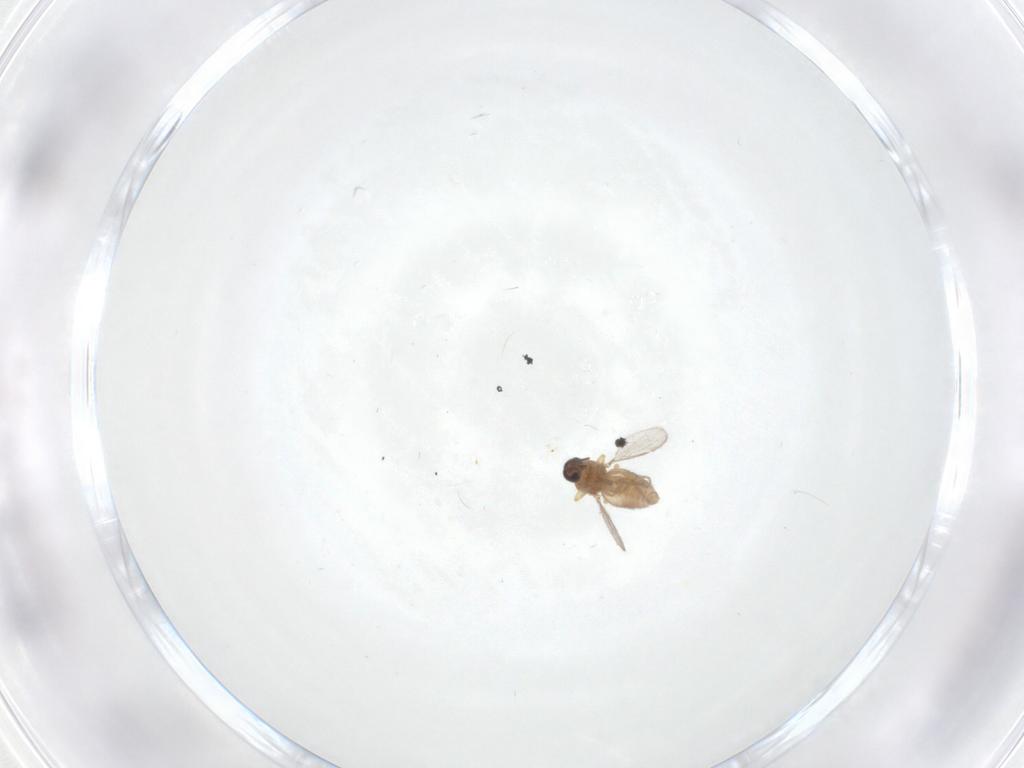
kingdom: Animalia
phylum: Arthropoda
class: Insecta
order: Diptera
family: Ceratopogonidae
